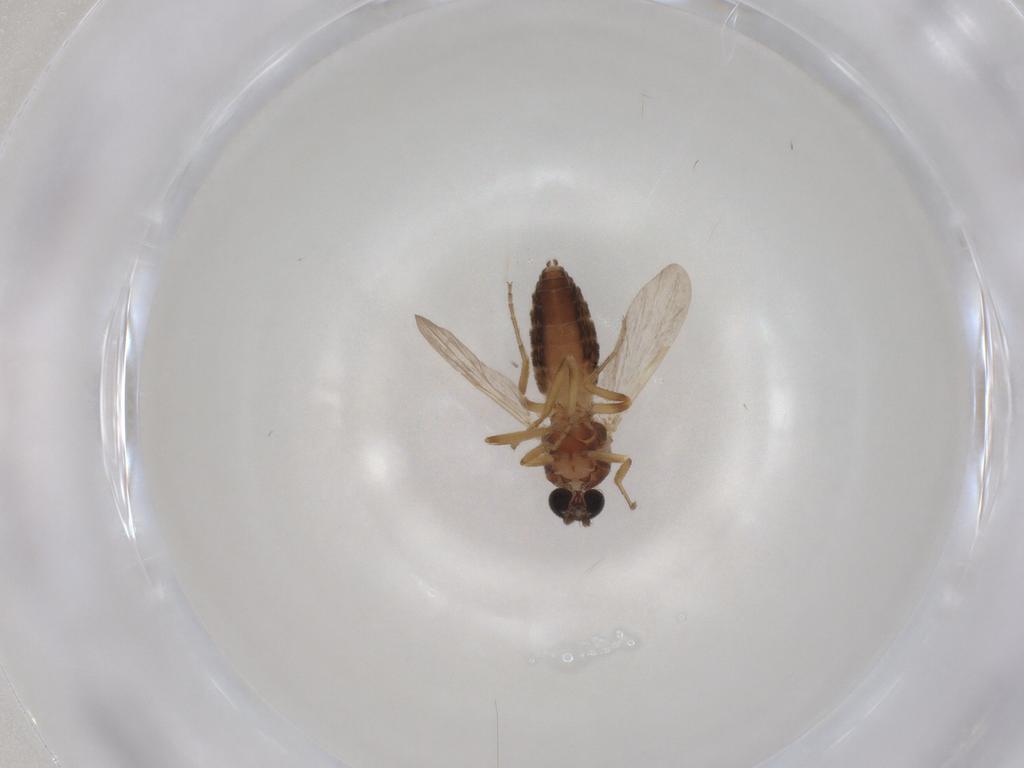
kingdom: Animalia
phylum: Arthropoda
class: Insecta
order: Diptera
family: Ceratopogonidae
